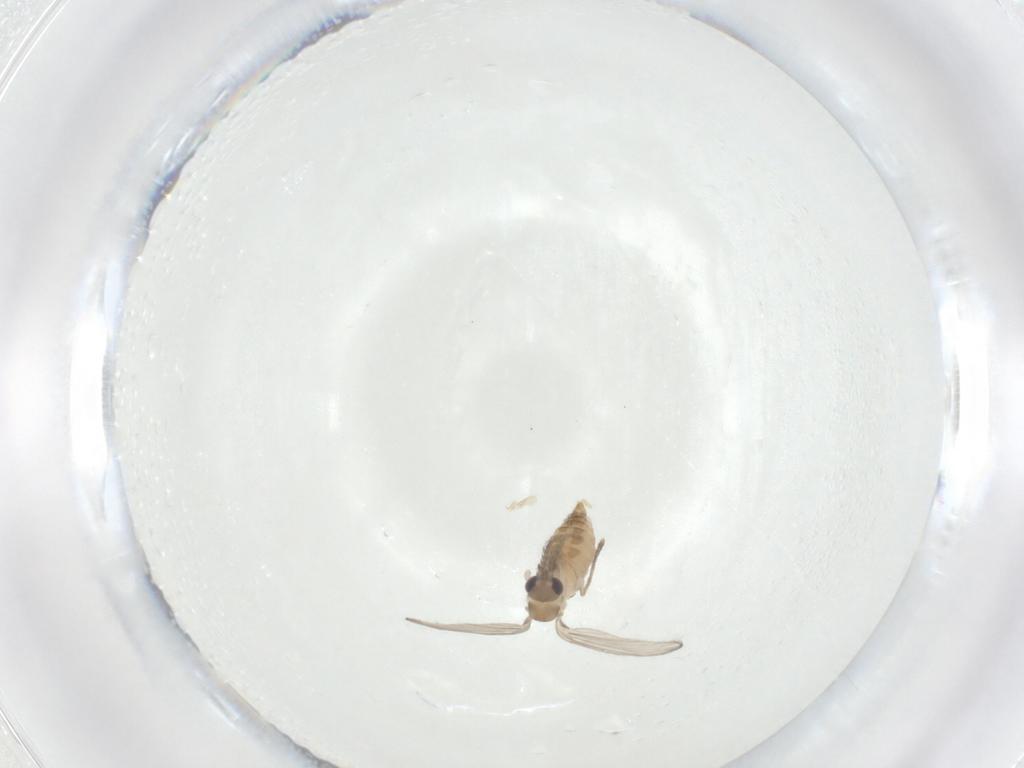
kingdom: Animalia
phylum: Arthropoda
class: Insecta
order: Diptera
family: Psychodidae
